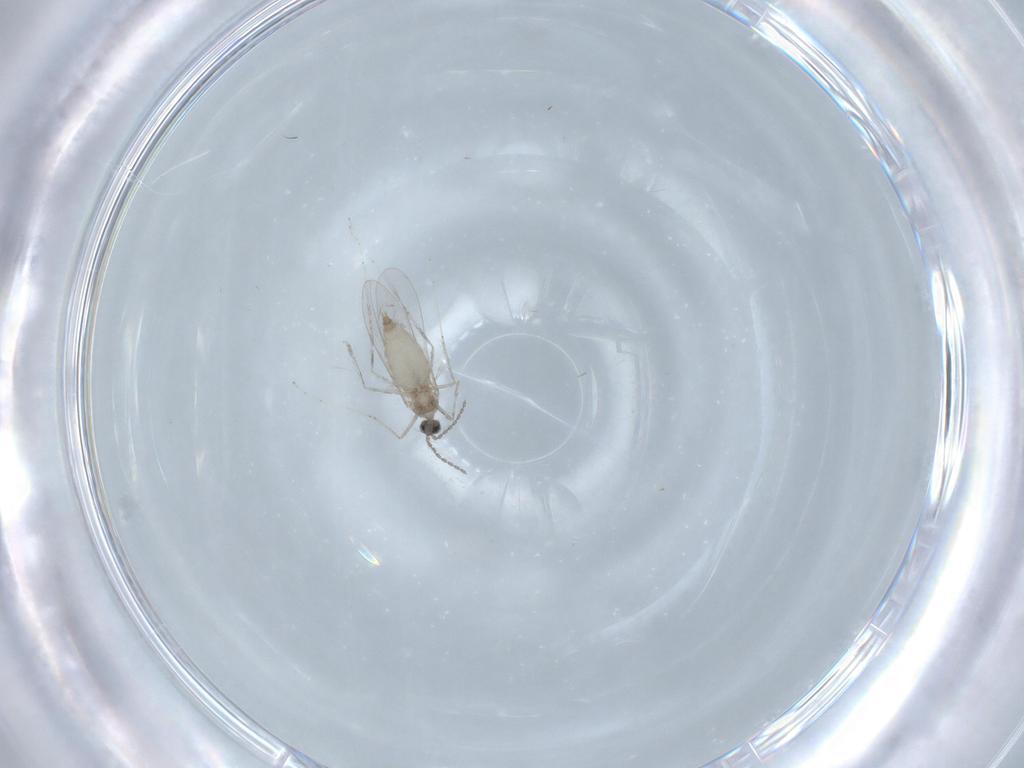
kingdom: Animalia
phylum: Arthropoda
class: Insecta
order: Diptera
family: Cecidomyiidae
